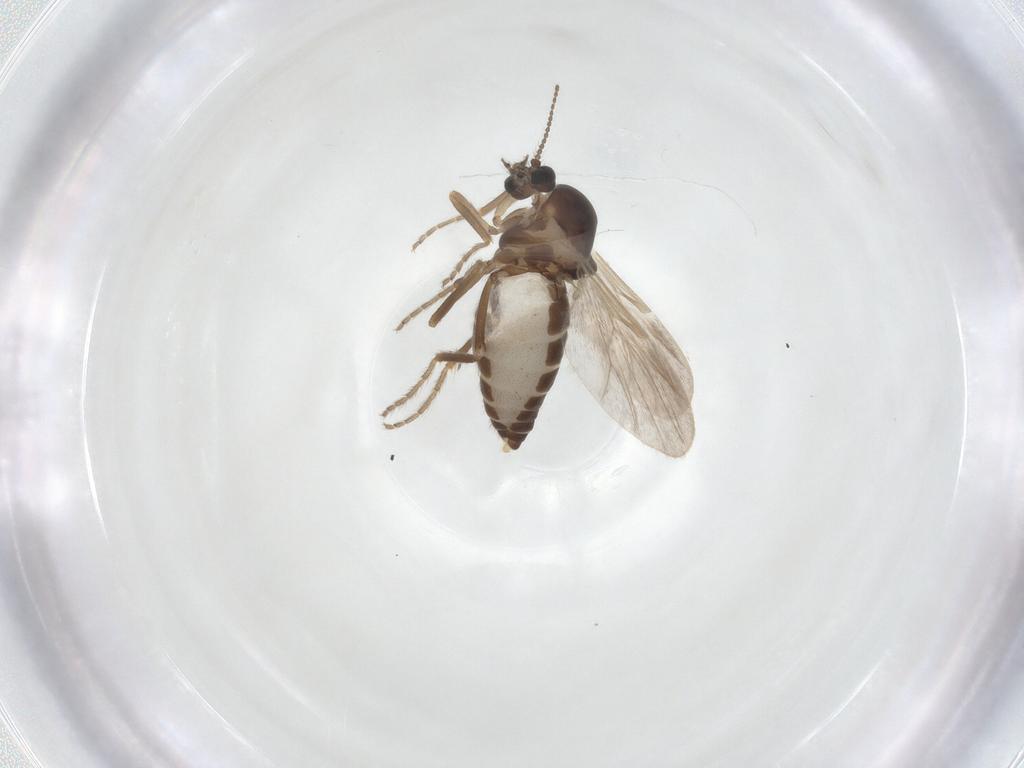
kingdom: Animalia
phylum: Arthropoda
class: Insecta
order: Diptera
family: Ceratopogonidae
